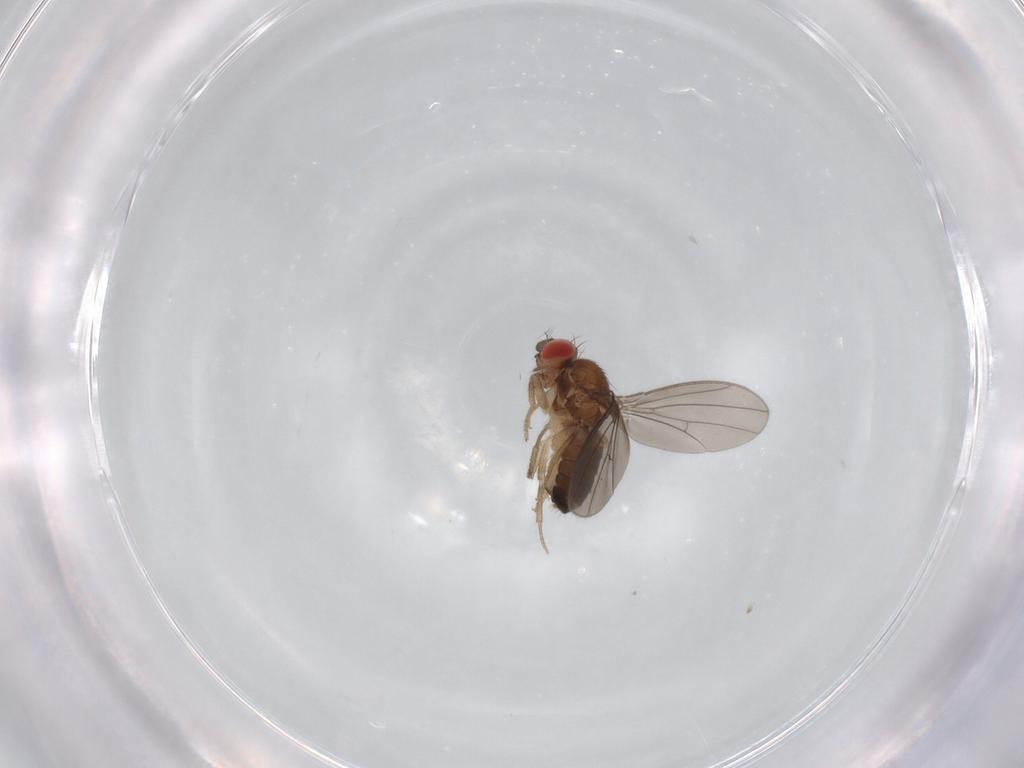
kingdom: Animalia
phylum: Arthropoda
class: Insecta
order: Diptera
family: Drosophilidae
